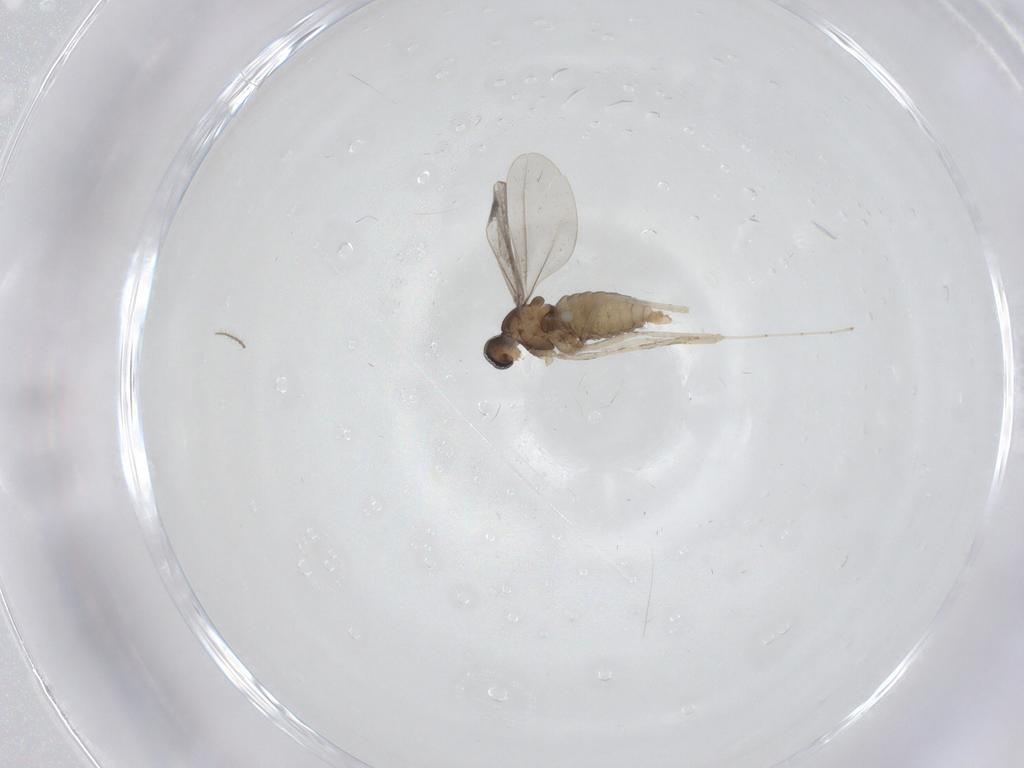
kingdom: Animalia
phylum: Arthropoda
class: Insecta
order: Diptera
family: Cecidomyiidae
